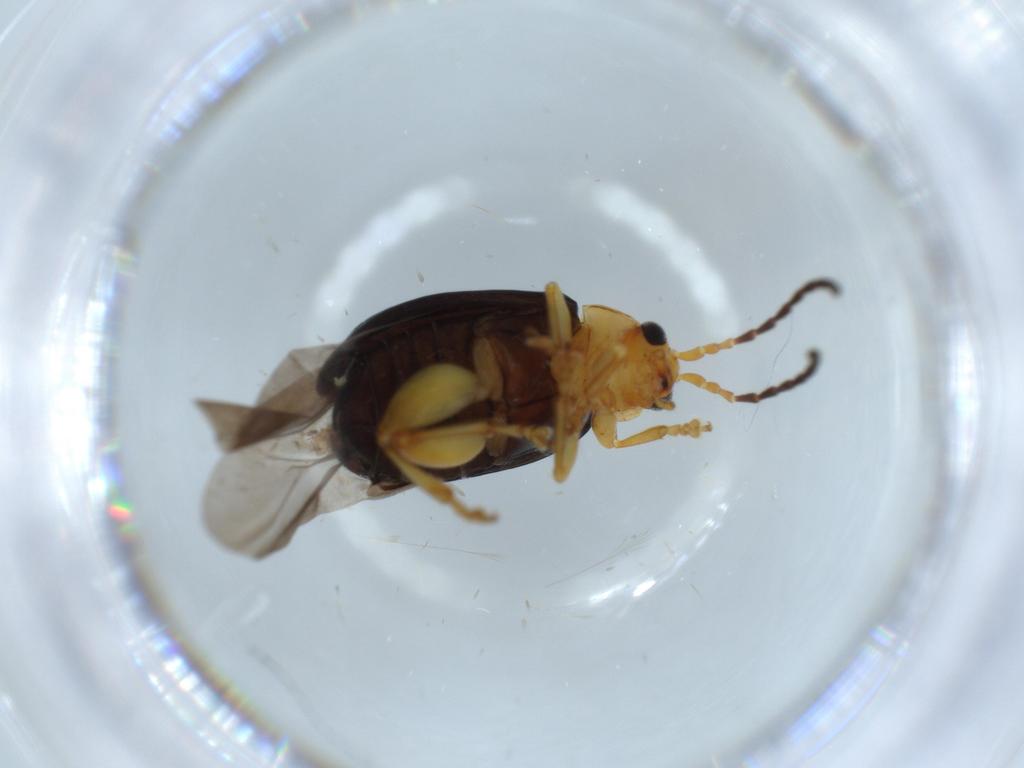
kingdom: Animalia
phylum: Arthropoda
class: Insecta
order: Coleoptera
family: Chrysomelidae
